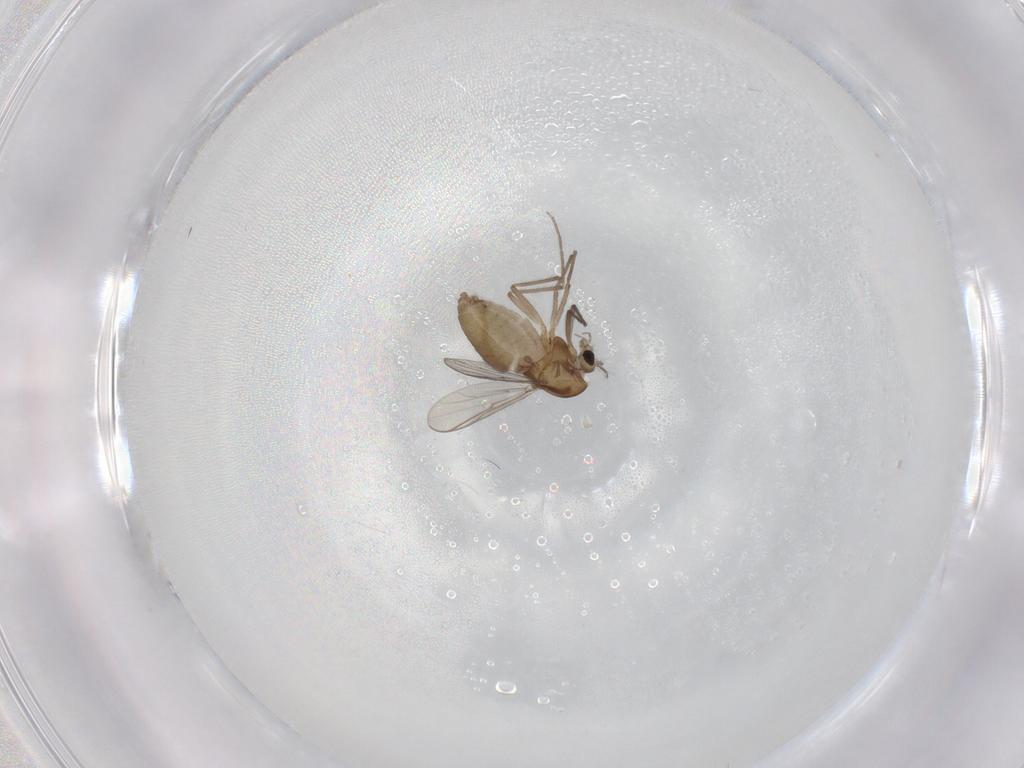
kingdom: Animalia
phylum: Arthropoda
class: Insecta
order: Diptera
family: Chironomidae
